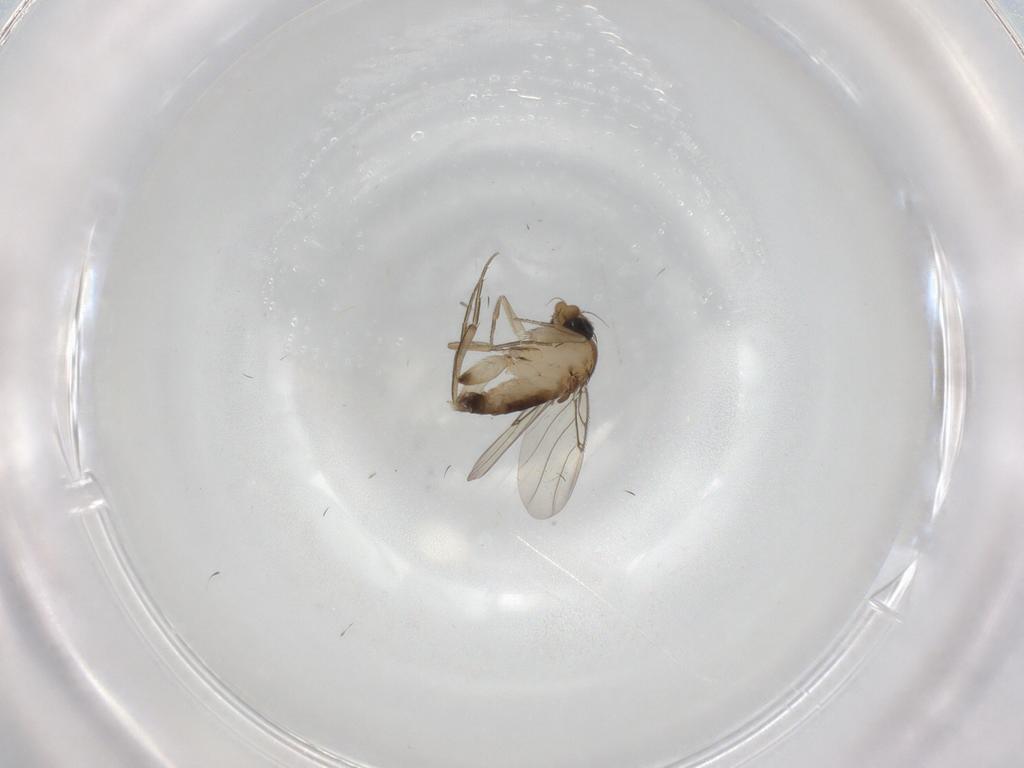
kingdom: Animalia
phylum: Arthropoda
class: Insecta
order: Diptera
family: Phoridae
